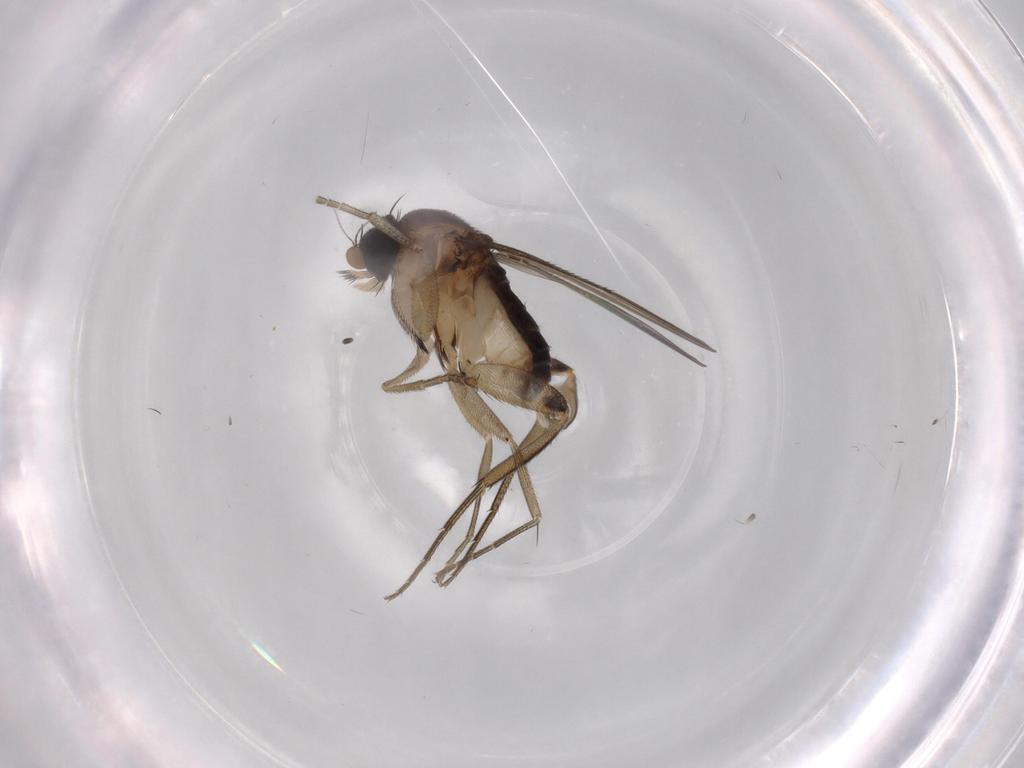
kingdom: Animalia
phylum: Arthropoda
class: Insecta
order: Diptera
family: Phoridae
